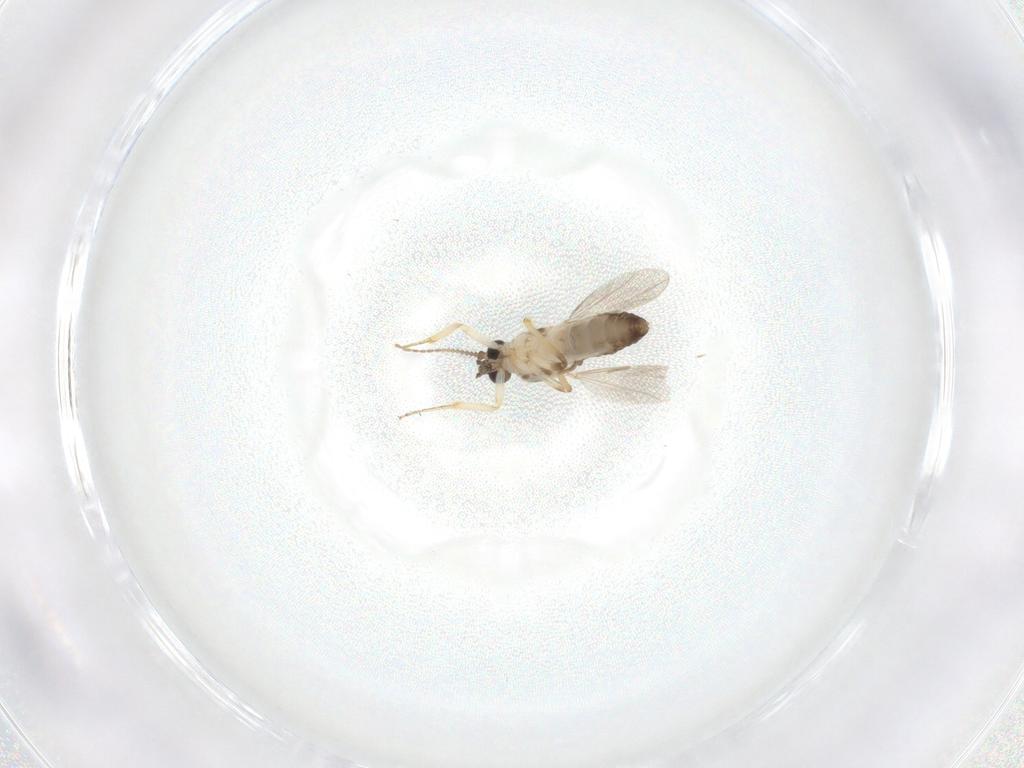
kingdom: Animalia
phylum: Arthropoda
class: Insecta
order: Diptera
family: Ceratopogonidae
